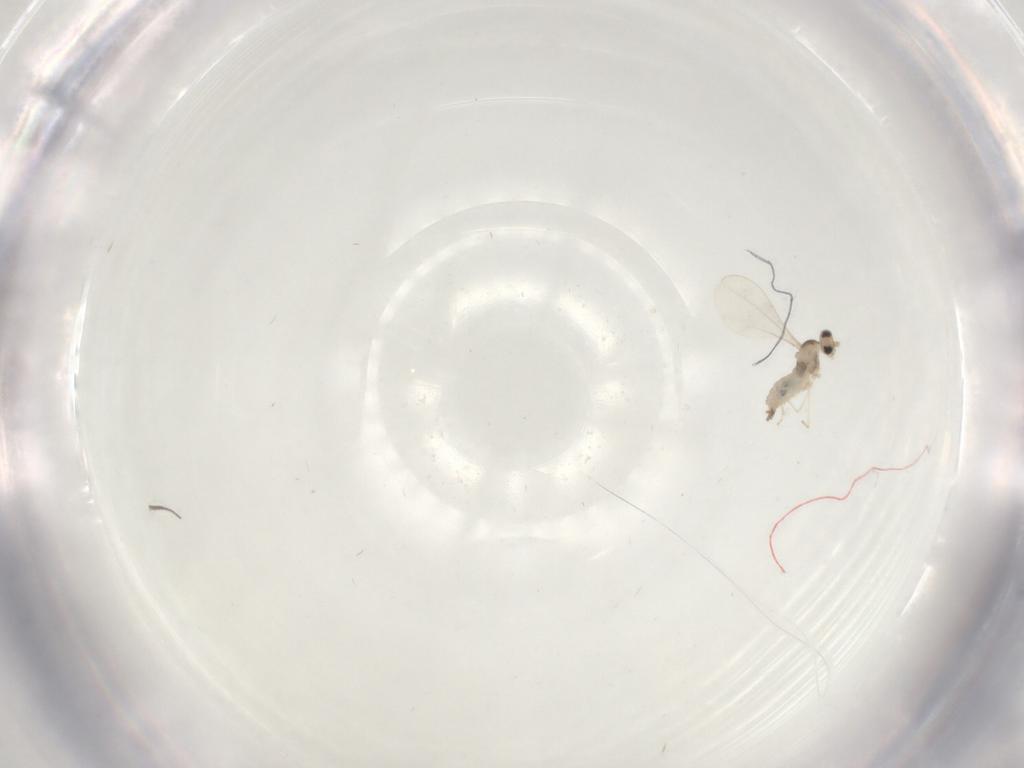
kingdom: Animalia
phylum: Arthropoda
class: Insecta
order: Diptera
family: Cecidomyiidae
